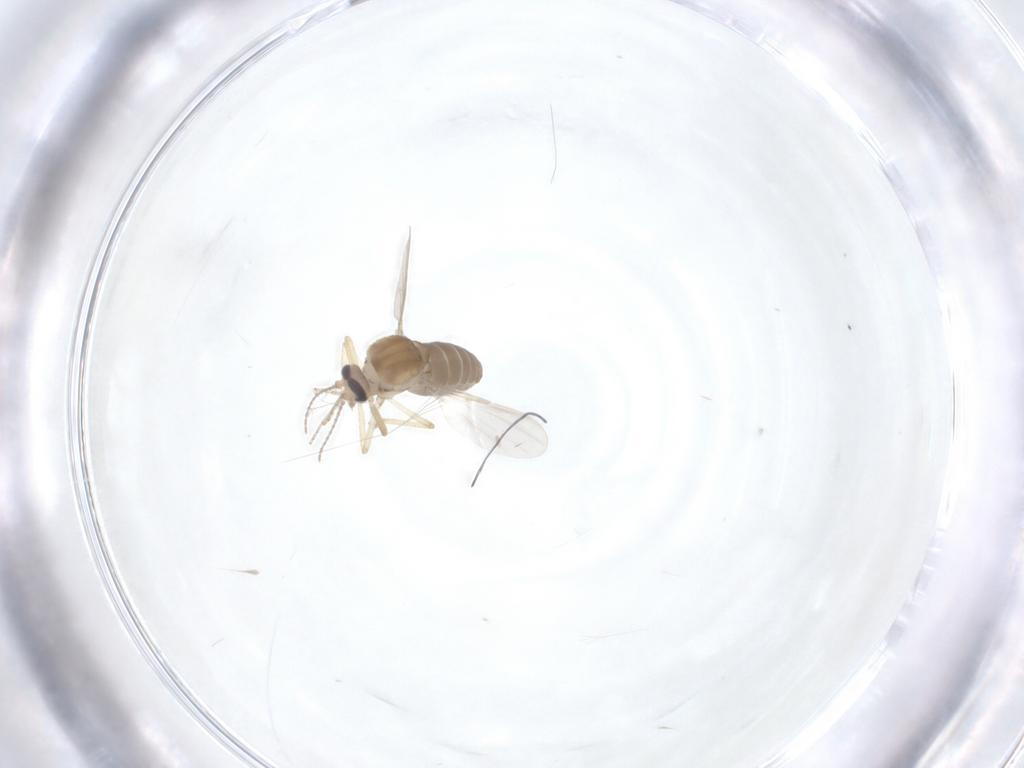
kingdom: Animalia
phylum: Arthropoda
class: Insecta
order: Diptera
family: Ceratopogonidae
